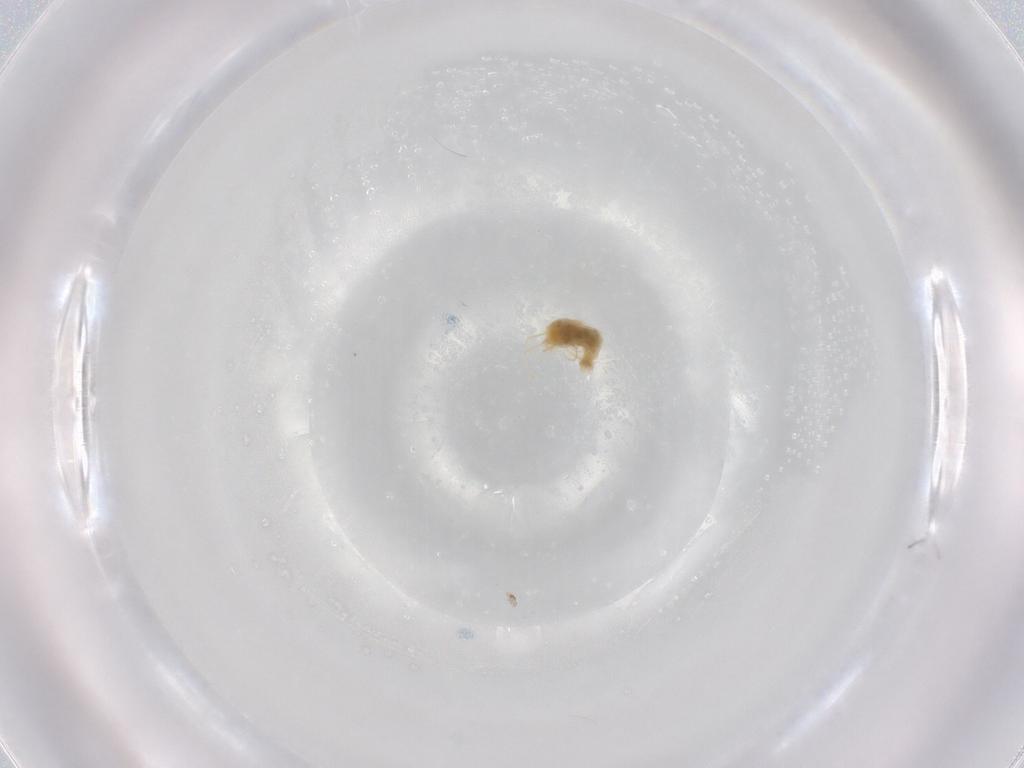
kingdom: Animalia
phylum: Arthropoda
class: Arachnida
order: Trombidiformes
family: Tetranychidae
